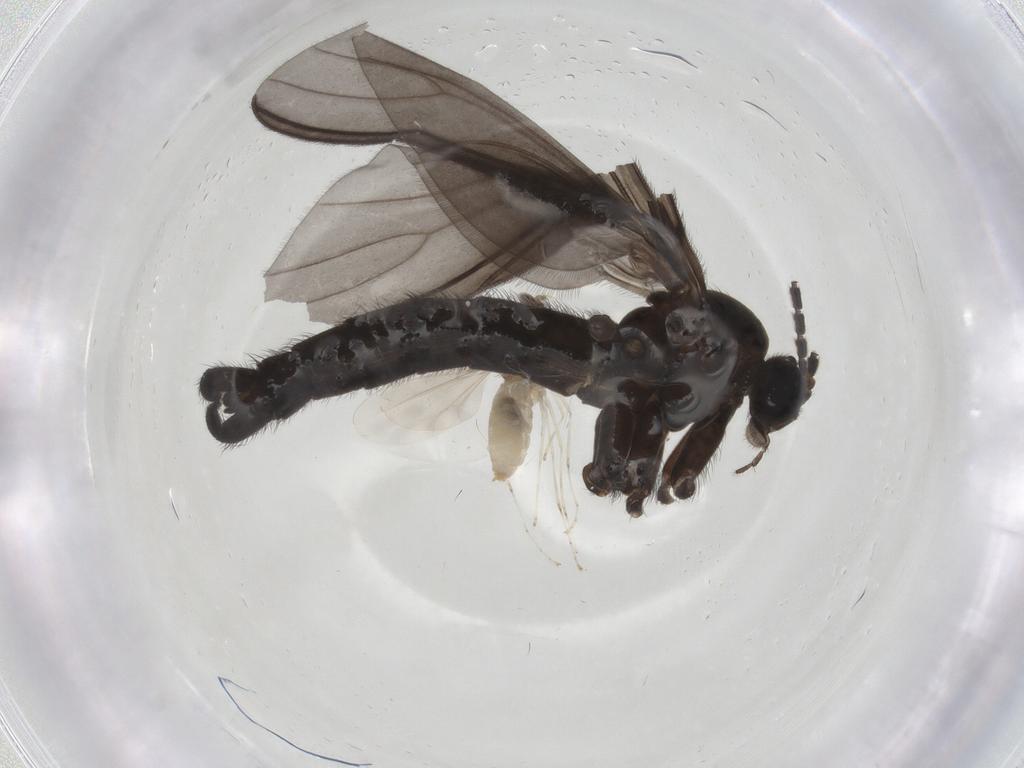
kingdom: Animalia
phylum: Arthropoda
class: Insecta
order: Diptera
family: Cecidomyiidae
